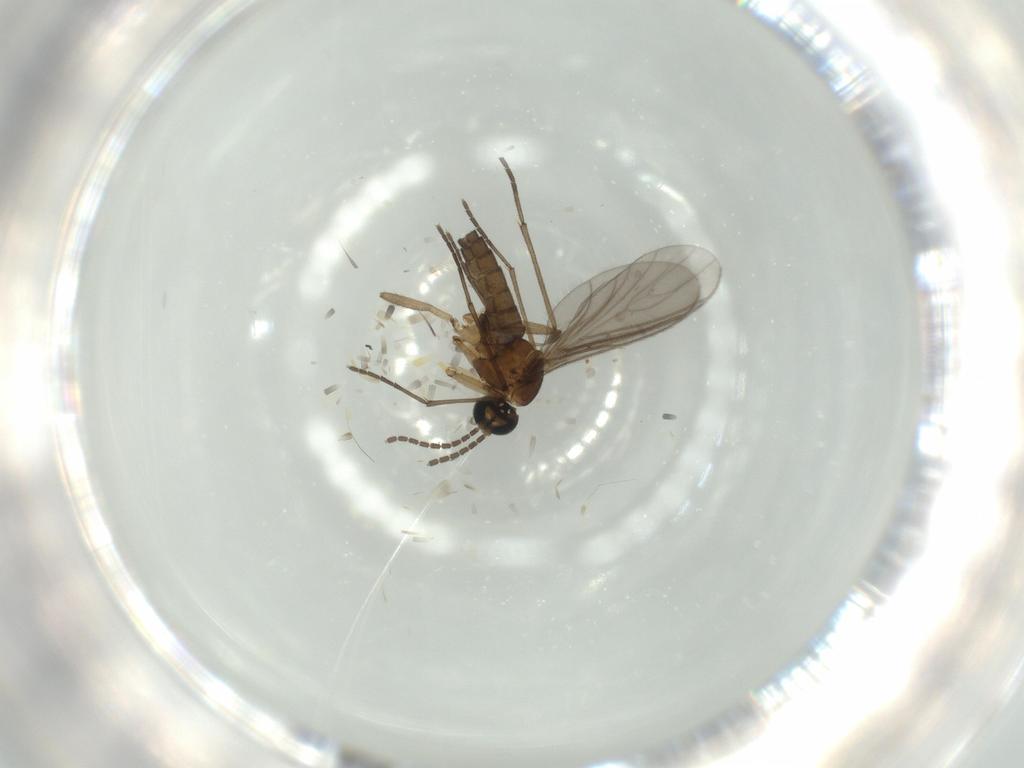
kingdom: Animalia
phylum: Arthropoda
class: Insecta
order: Diptera
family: Sciaridae
